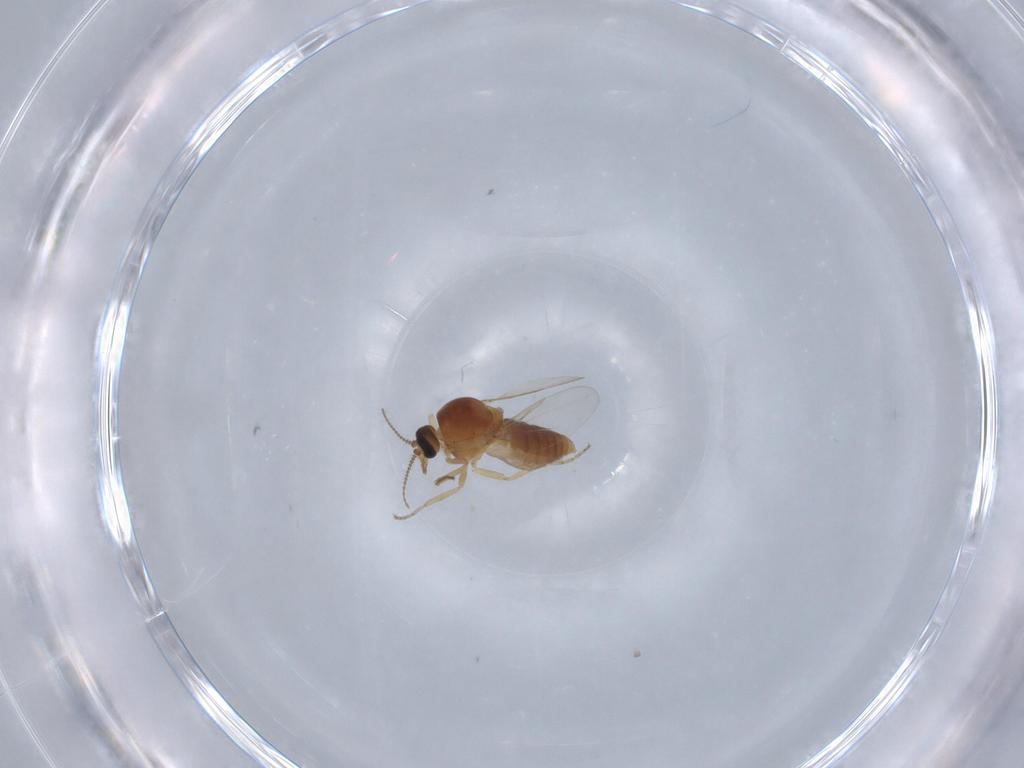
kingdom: Animalia
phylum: Arthropoda
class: Insecta
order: Diptera
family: Ceratopogonidae
